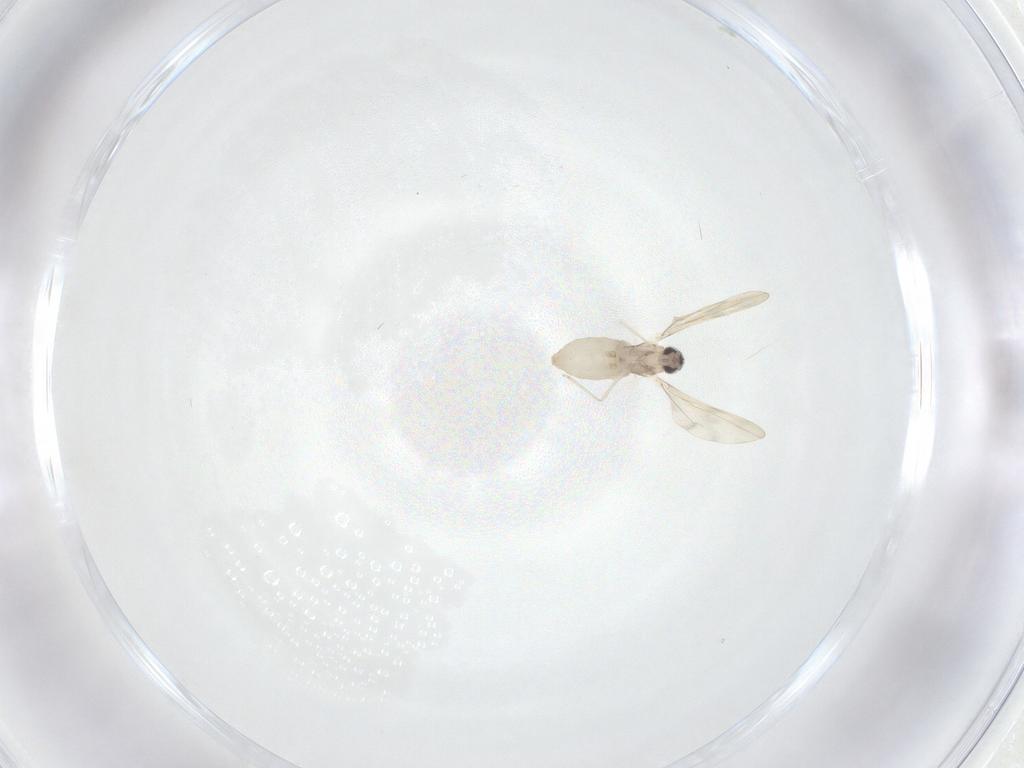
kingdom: Animalia
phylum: Arthropoda
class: Insecta
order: Diptera
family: Cecidomyiidae
